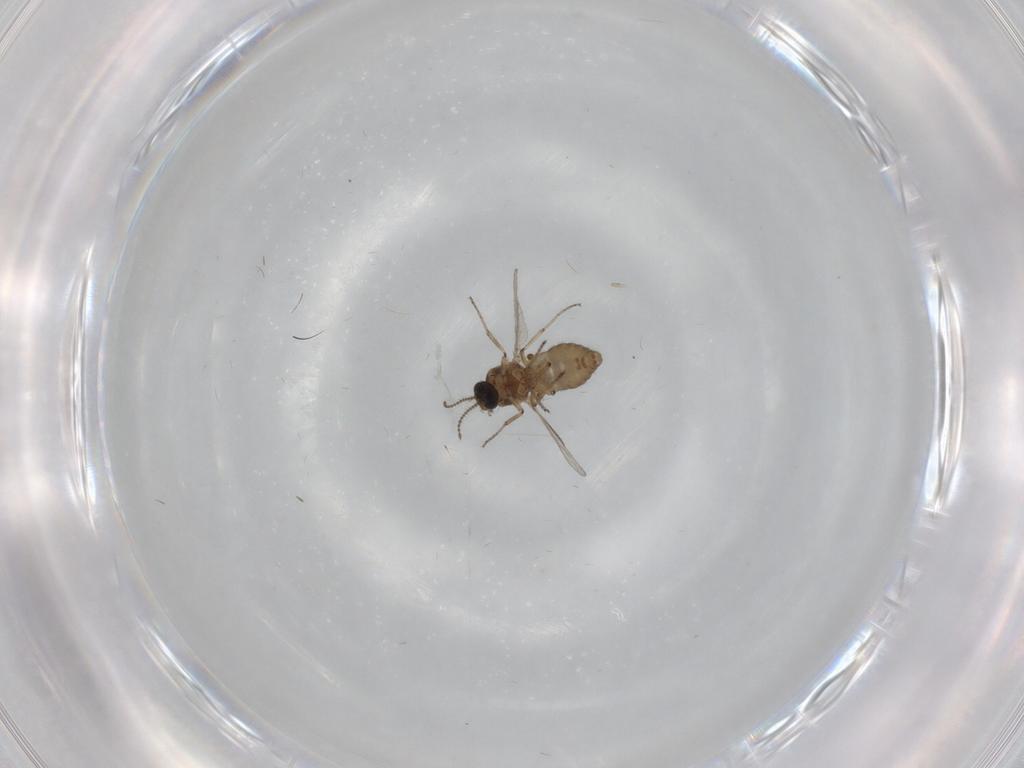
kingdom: Animalia
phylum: Arthropoda
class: Insecta
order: Diptera
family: Ceratopogonidae
